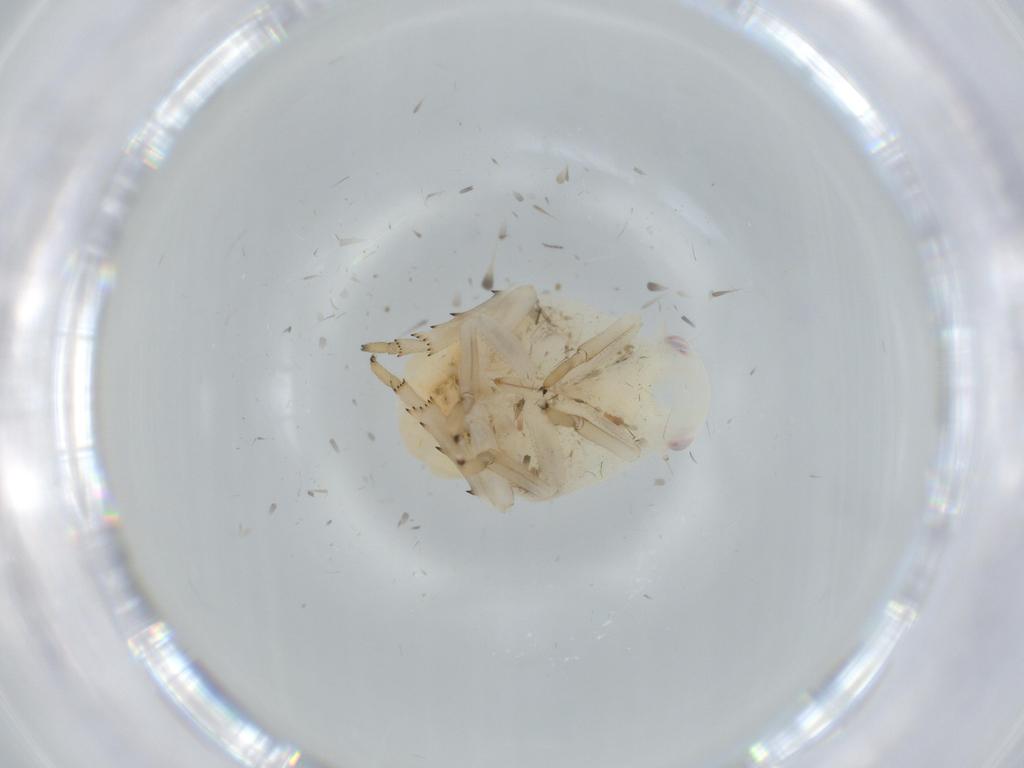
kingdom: Animalia
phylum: Arthropoda
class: Insecta
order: Hemiptera
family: Flatidae
